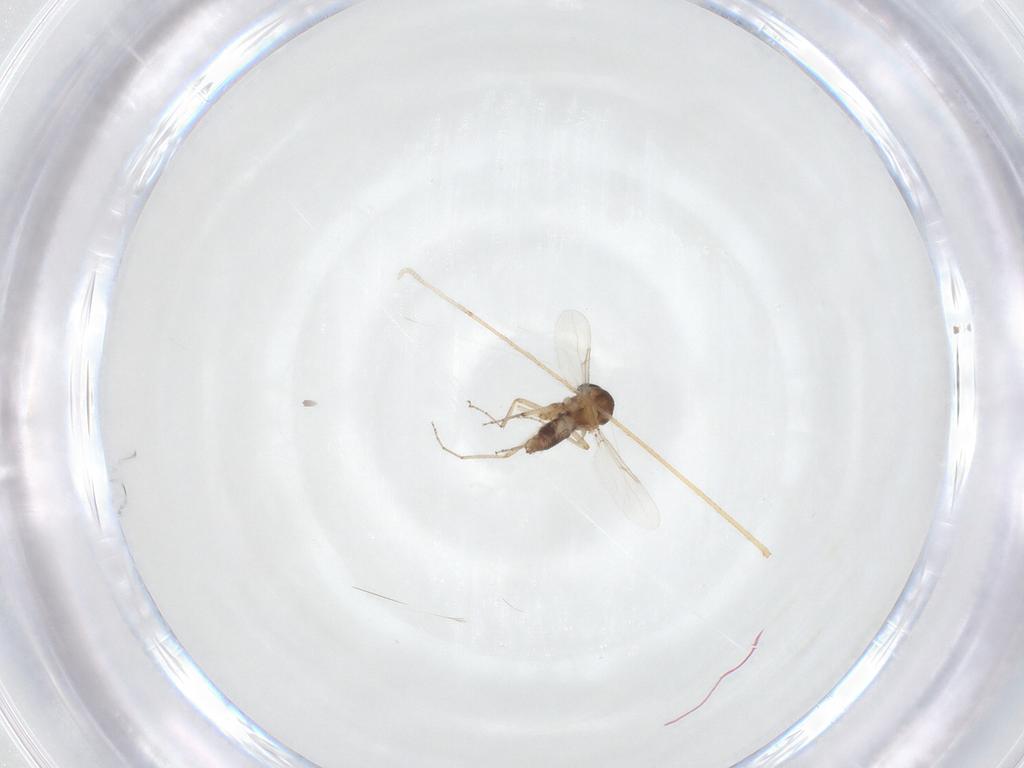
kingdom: Animalia
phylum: Arthropoda
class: Insecta
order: Diptera
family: Ceratopogonidae
